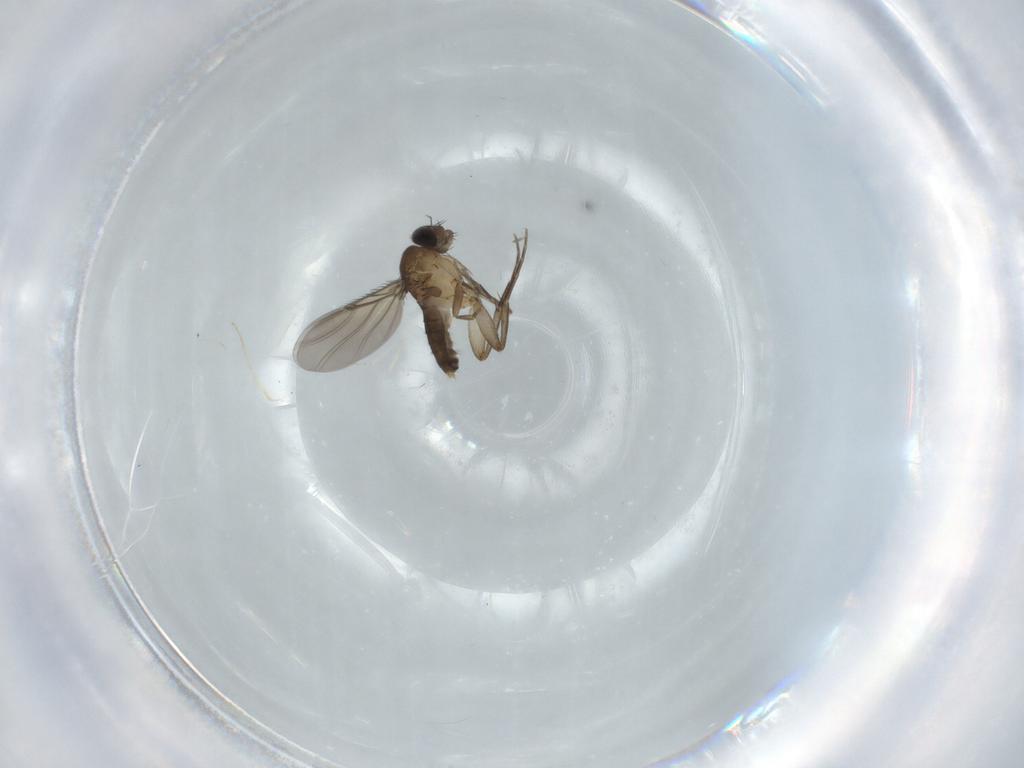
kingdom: Animalia
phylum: Arthropoda
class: Insecta
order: Diptera
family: Phoridae
